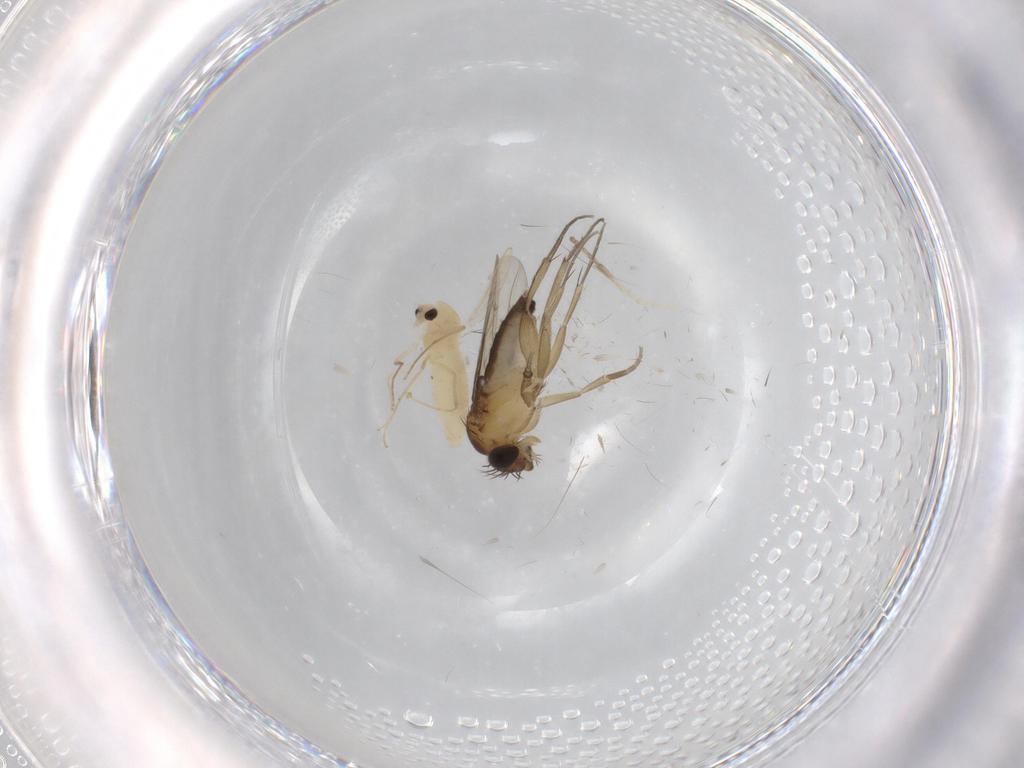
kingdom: Animalia
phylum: Arthropoda
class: Insecta
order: Diptera
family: Chironomidae
